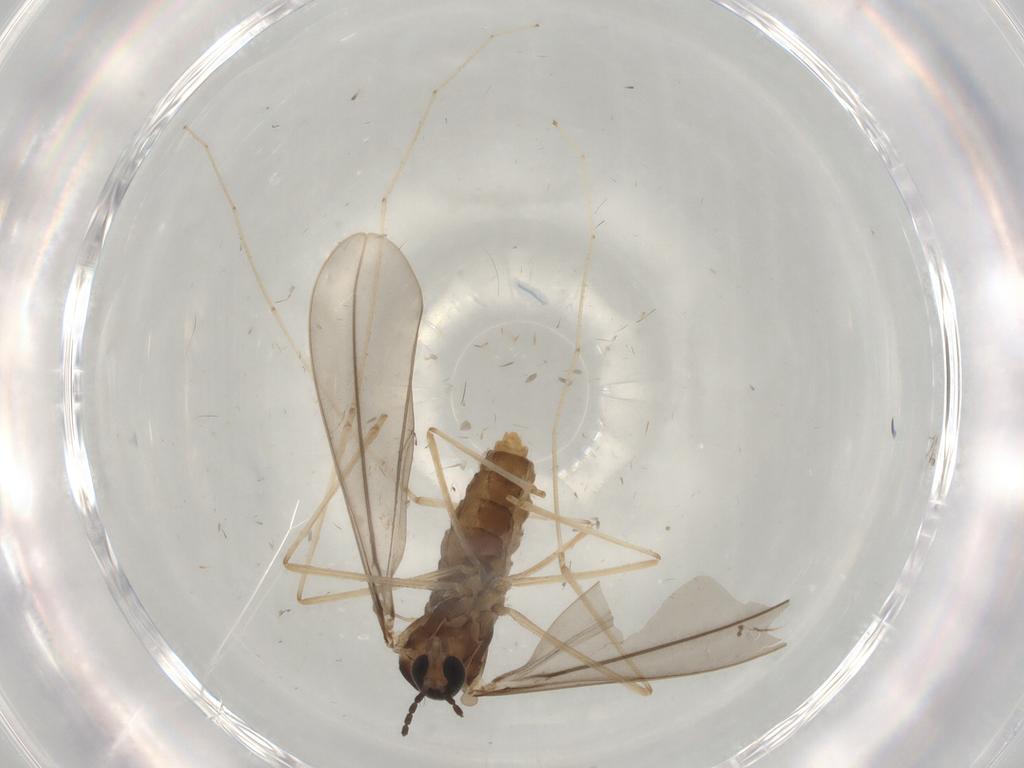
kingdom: Animalia
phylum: Arthropoda
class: Insecta
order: Diptera
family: Cecidomyiidae
